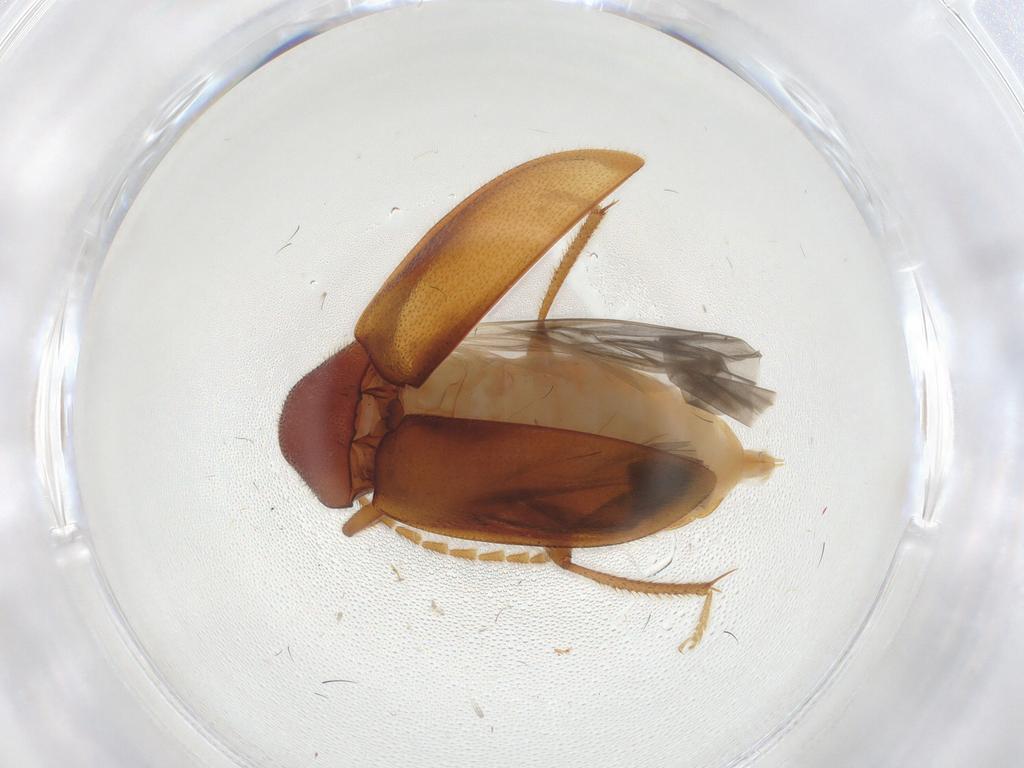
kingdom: Animalia
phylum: Arthropoda
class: Insecta
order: Coleoptera
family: Ptilodactylidae
